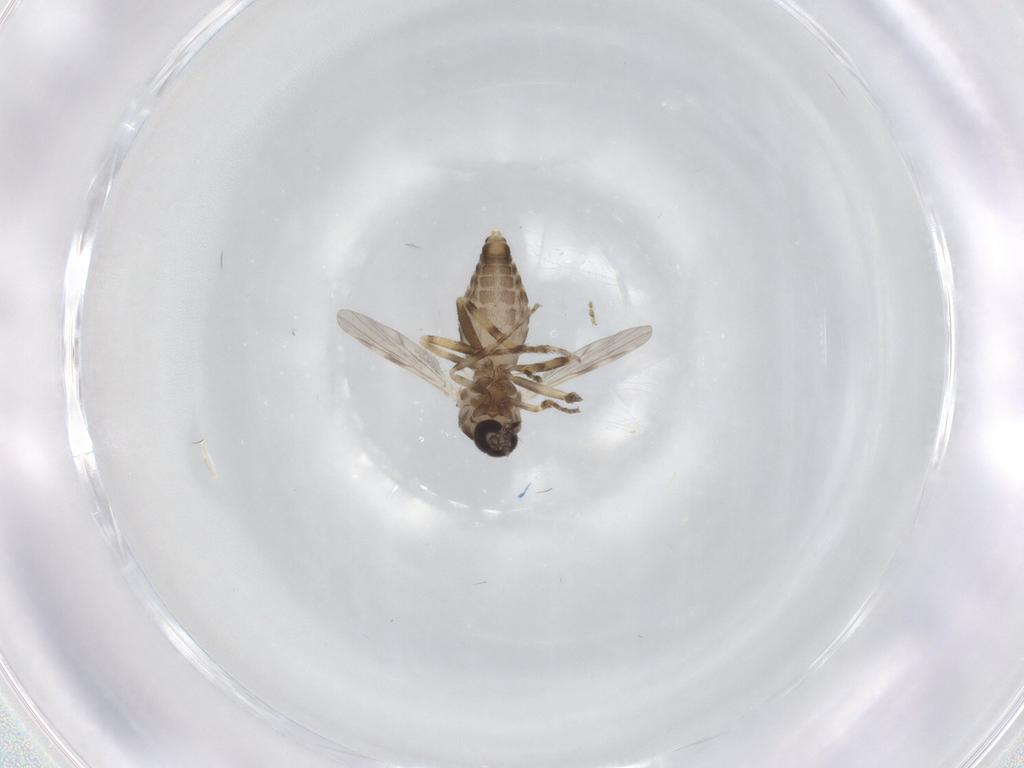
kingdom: Animalia
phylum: Arthropoda
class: Insecta
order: Diptera
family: Ceratopogonidae
